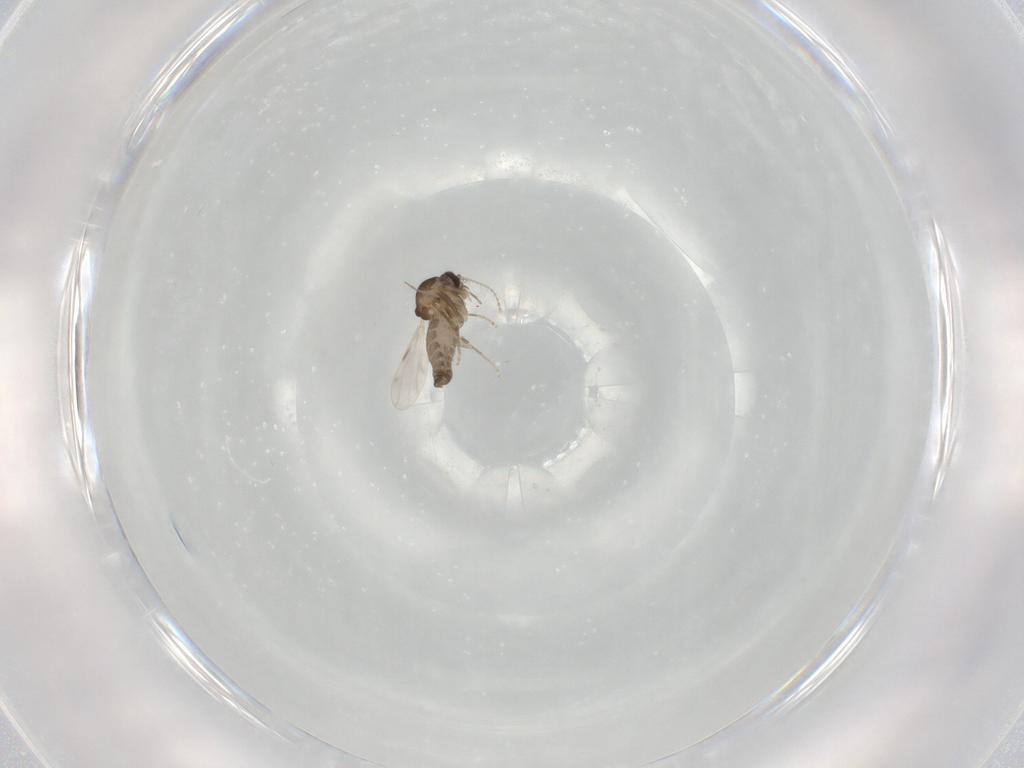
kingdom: Animalia
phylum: Arthropoda
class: Insecta
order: Diptera
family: Ceratopogonidae
